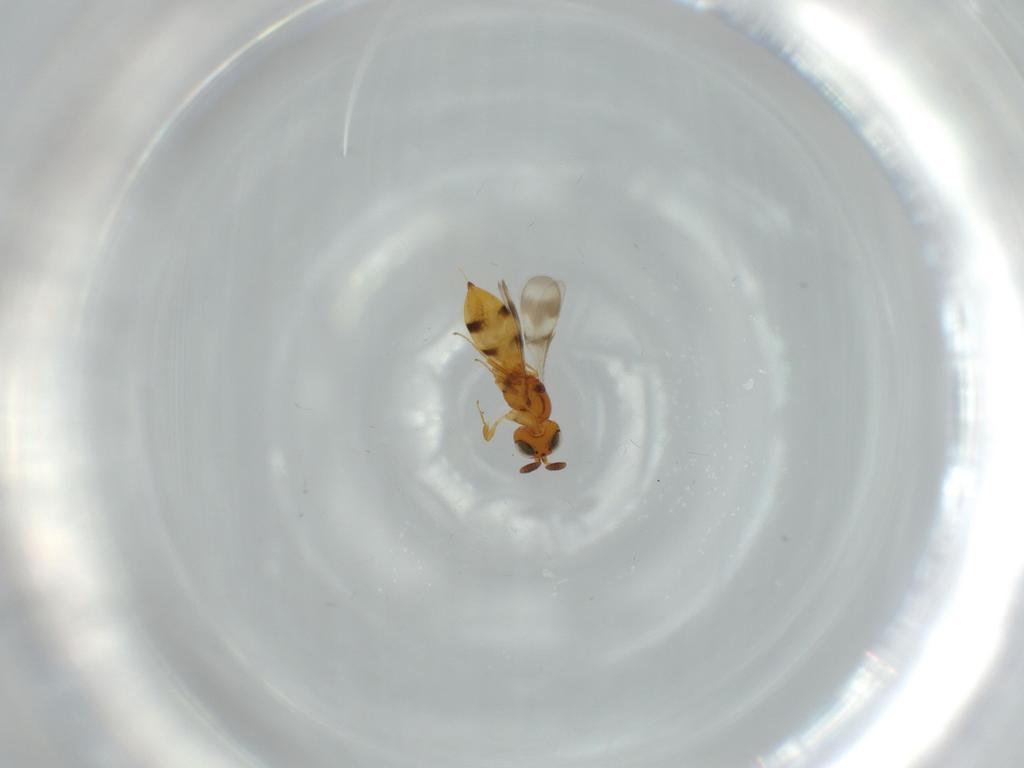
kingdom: Animalia
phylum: Arthropoda
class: Insecta
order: Hymenoptera
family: Scelionidae
